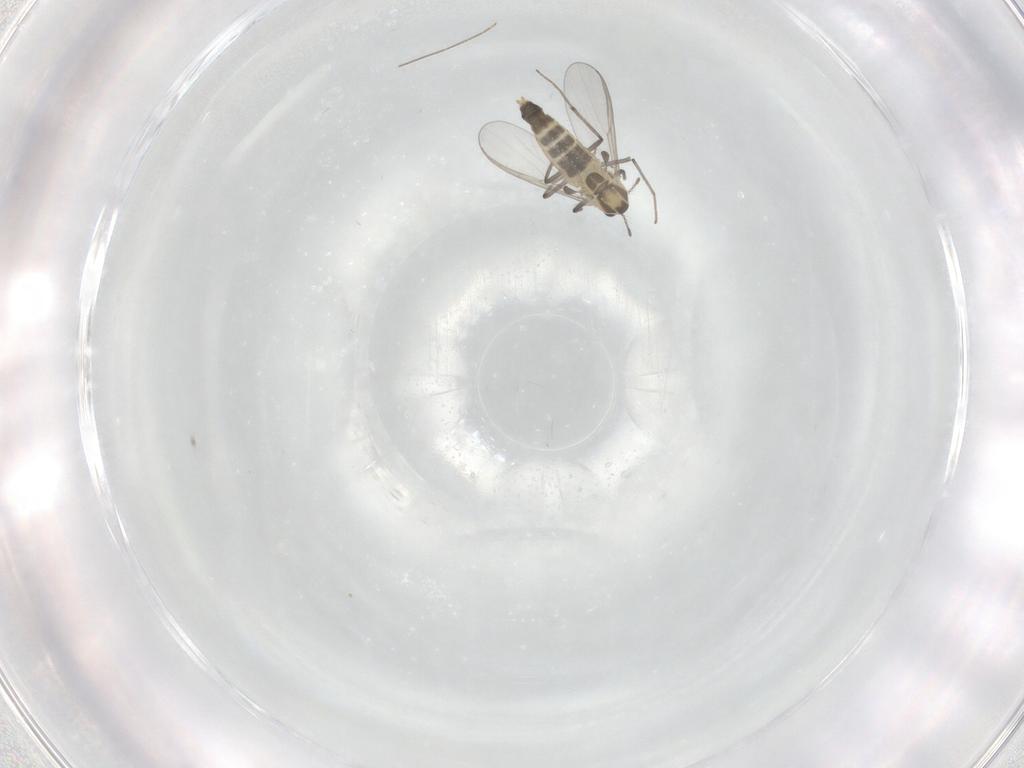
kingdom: Animalia
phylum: Arthropoda
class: Insecta
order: Diptera
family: Chironomidae
